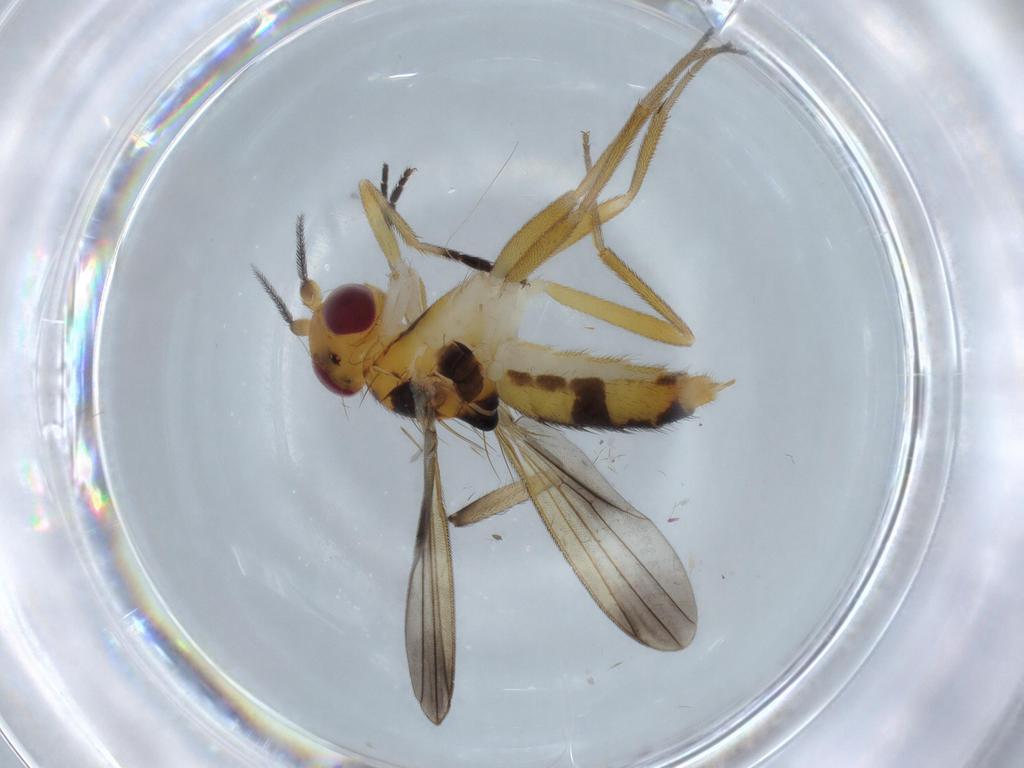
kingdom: Animalia
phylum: Arthropoda
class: Insecta
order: Diptera
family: Clusiidae
